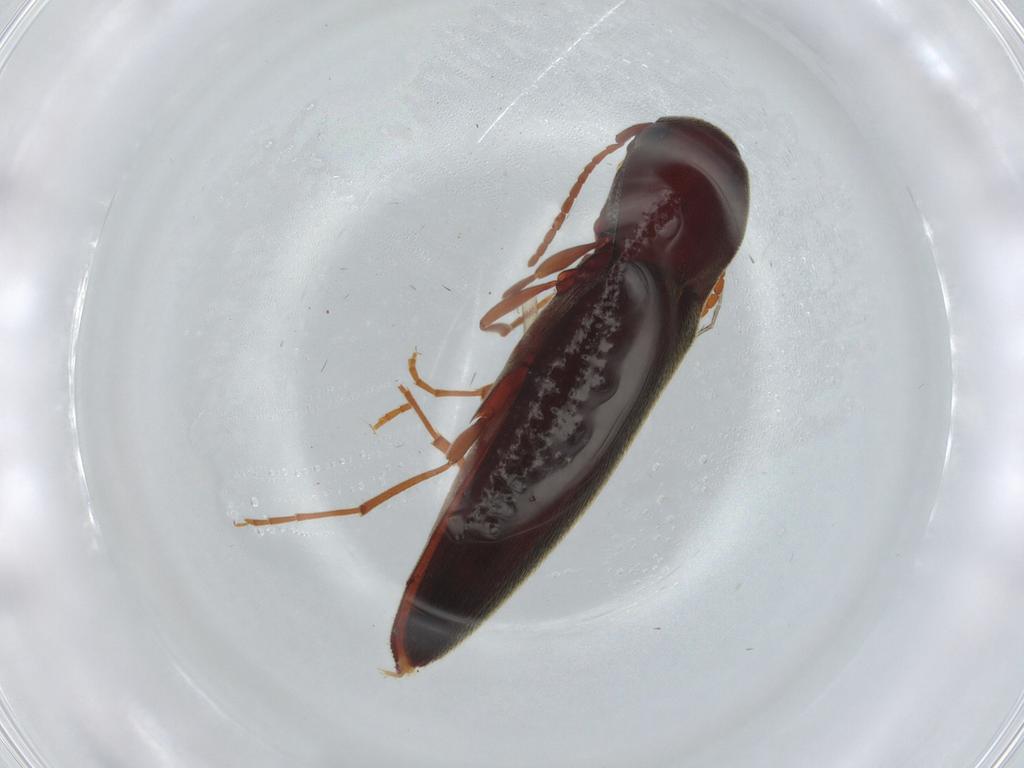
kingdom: Animalia
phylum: Arthropoda
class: Insecta
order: Coleoptera
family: Eucnemidae
